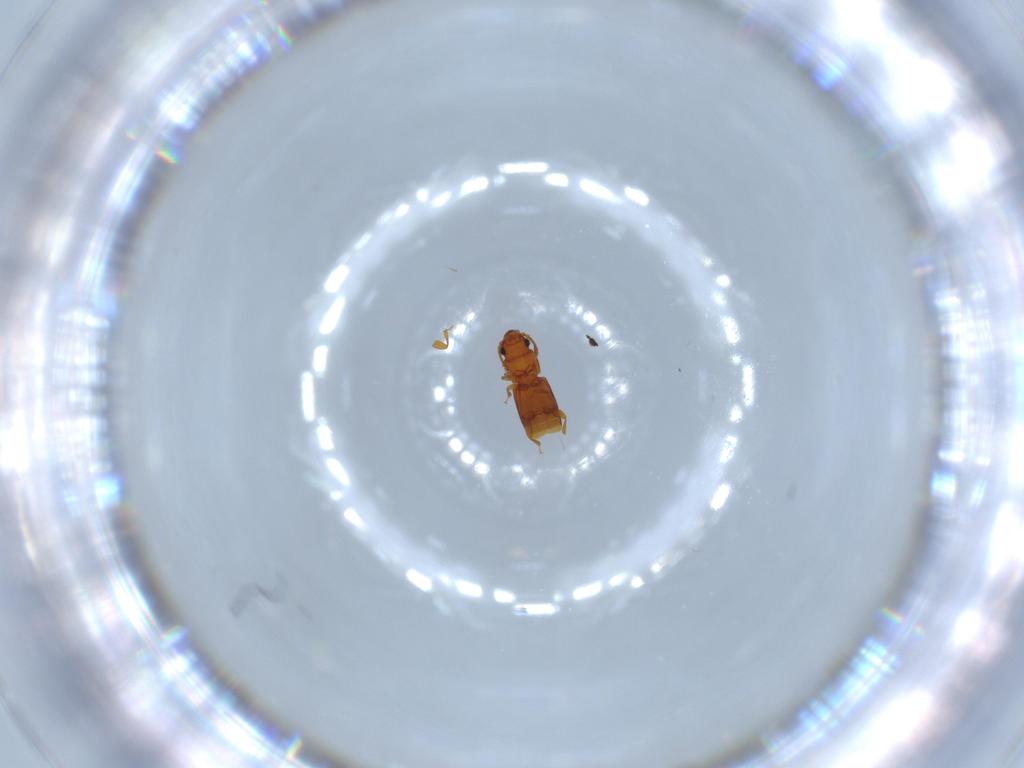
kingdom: Animalia
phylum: Arthropoda
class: Insecta
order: Coleoptera
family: Smicripidae
